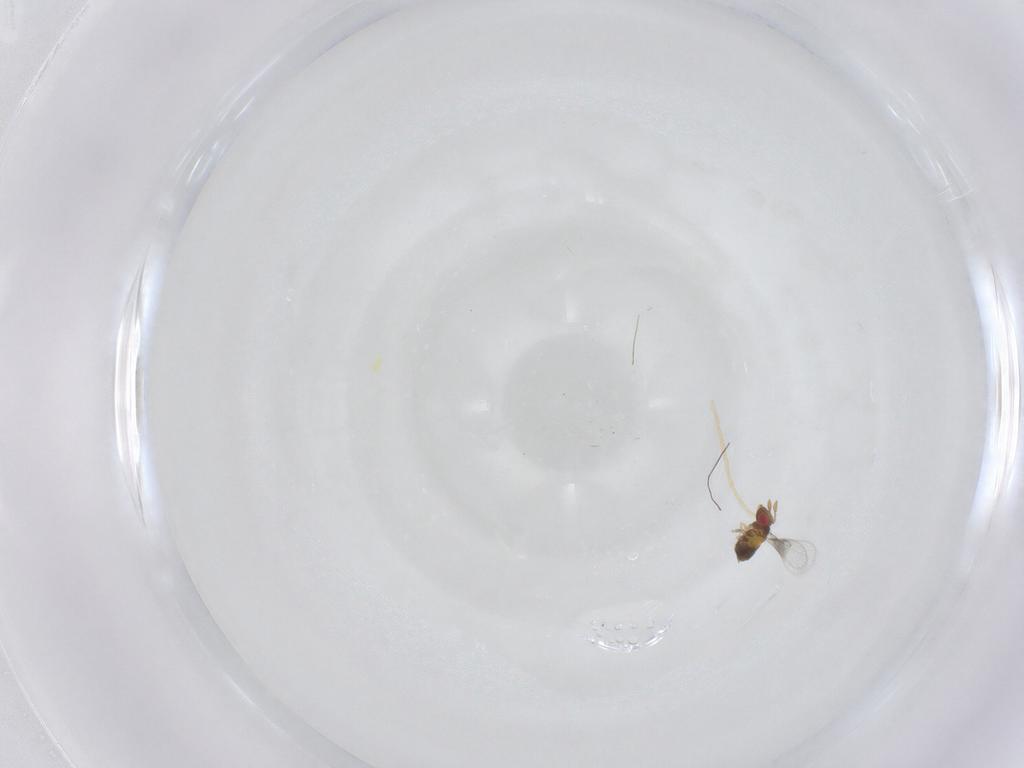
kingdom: Animalia
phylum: Arthropoda
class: Insecta
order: Hymenoptera
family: Trichogrammatidae
